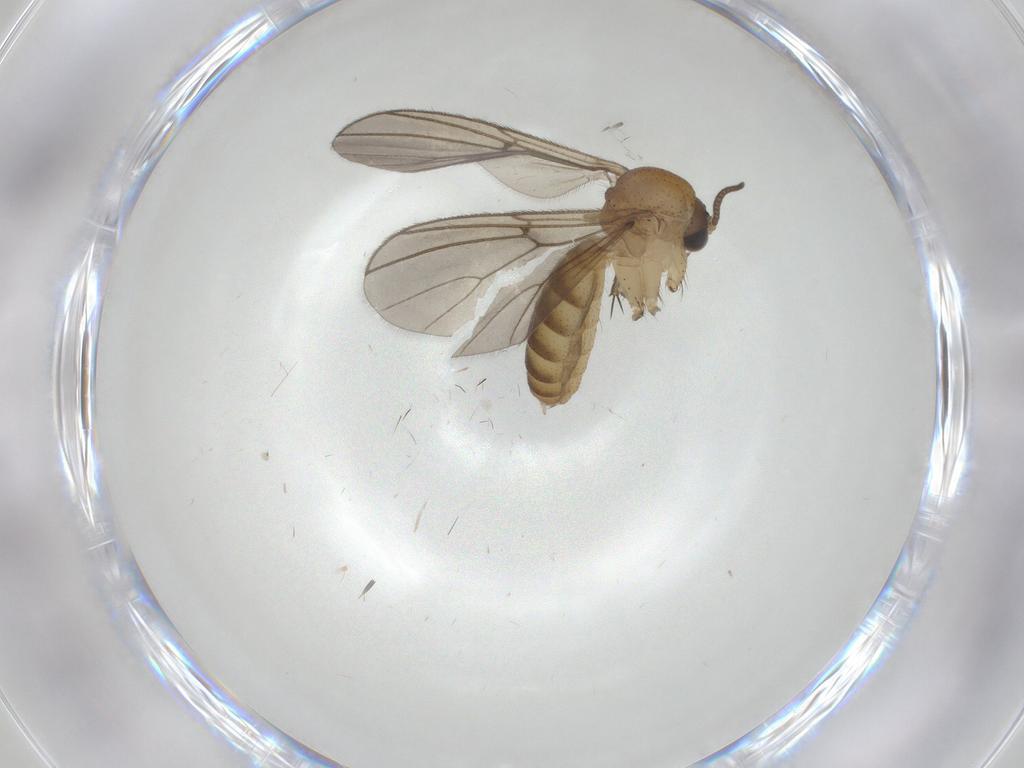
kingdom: Animalia
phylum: Arthropoda
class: Insecta
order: Diptera
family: Mycetophilidae
